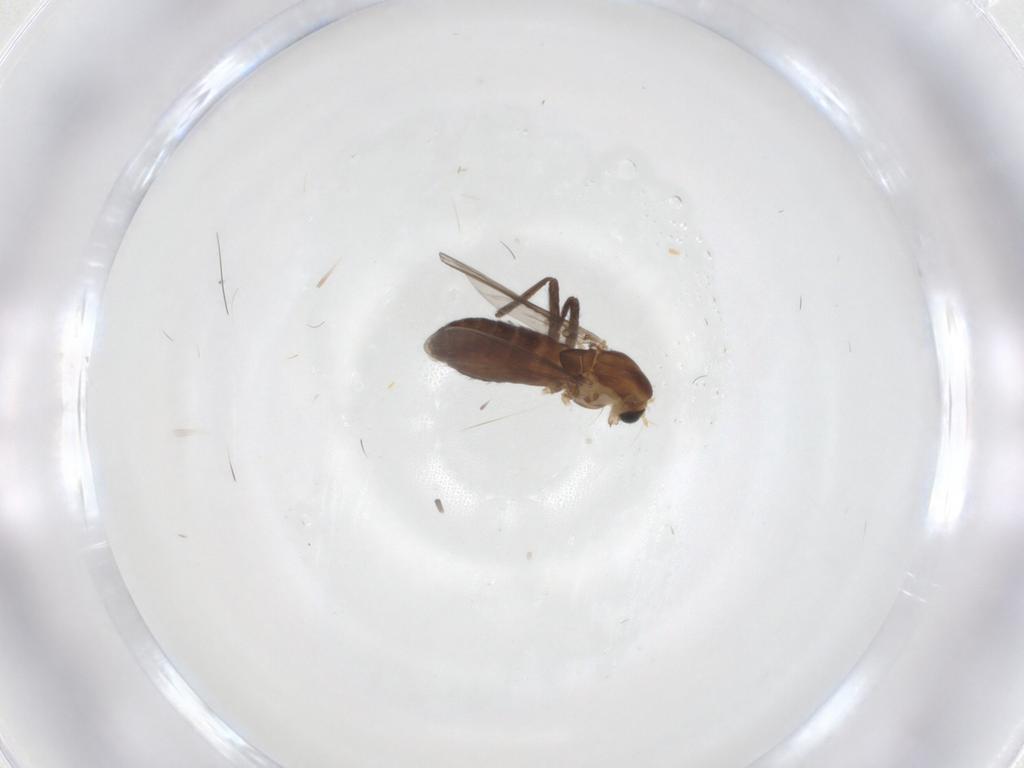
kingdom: Animalia
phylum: Arthropoda
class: Insecta
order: Diptera
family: Chironomidae
